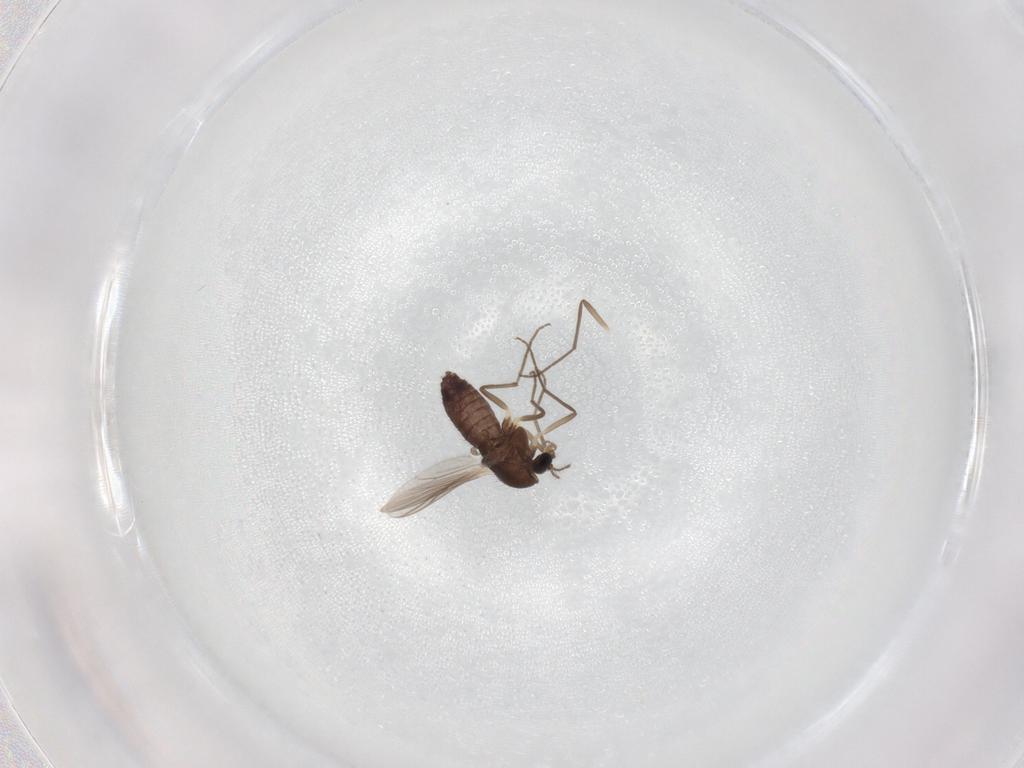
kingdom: Animalia
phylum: Arthropoda
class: Insecta
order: Diptera
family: Chironomidae
